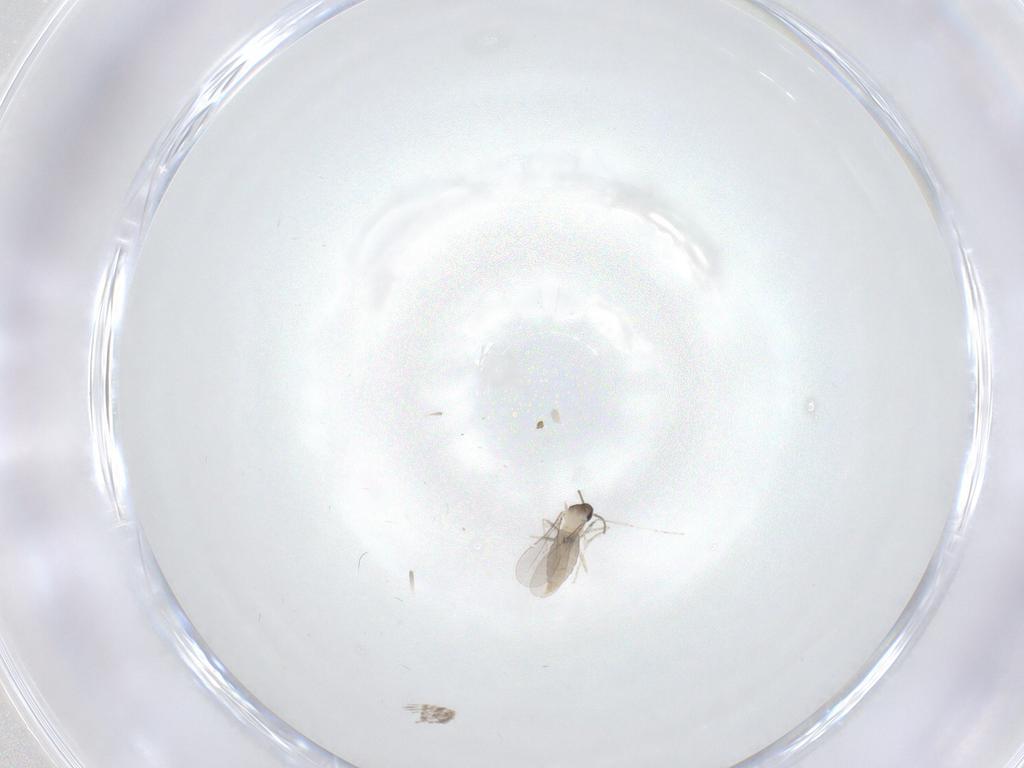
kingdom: Animalia
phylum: Arthropoda
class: Insecta
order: Diptera
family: Cecidomyiidae
